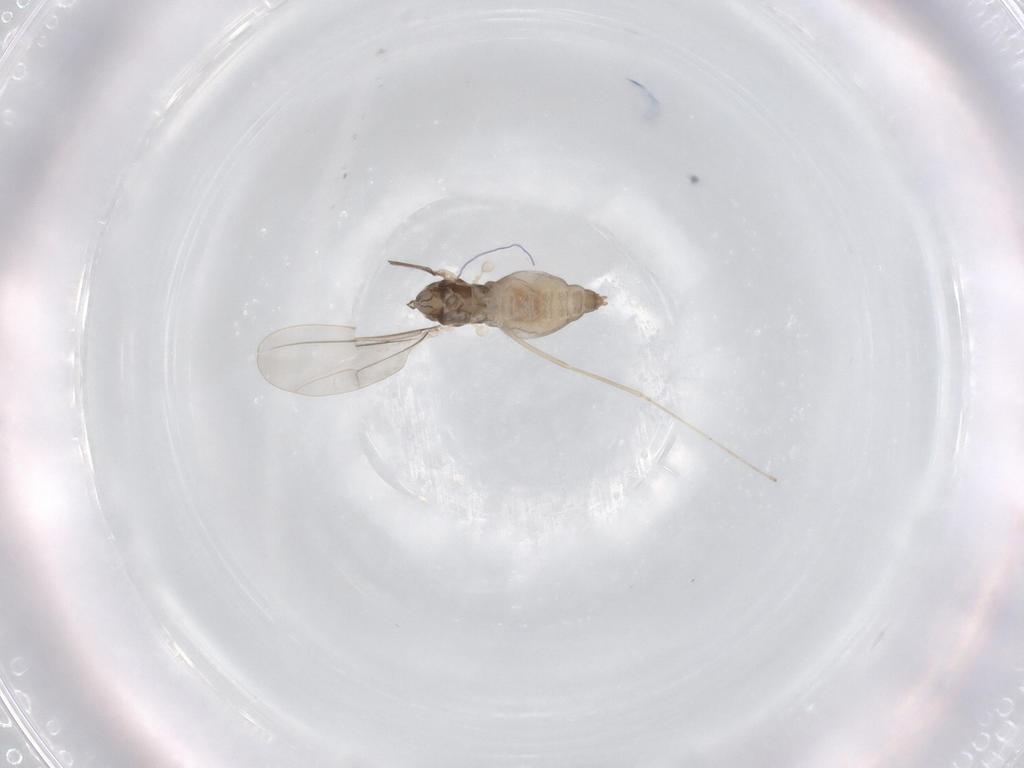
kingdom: Animalia
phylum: Arthropoda
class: Insecta
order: Diptera
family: Cecidomyiidae
